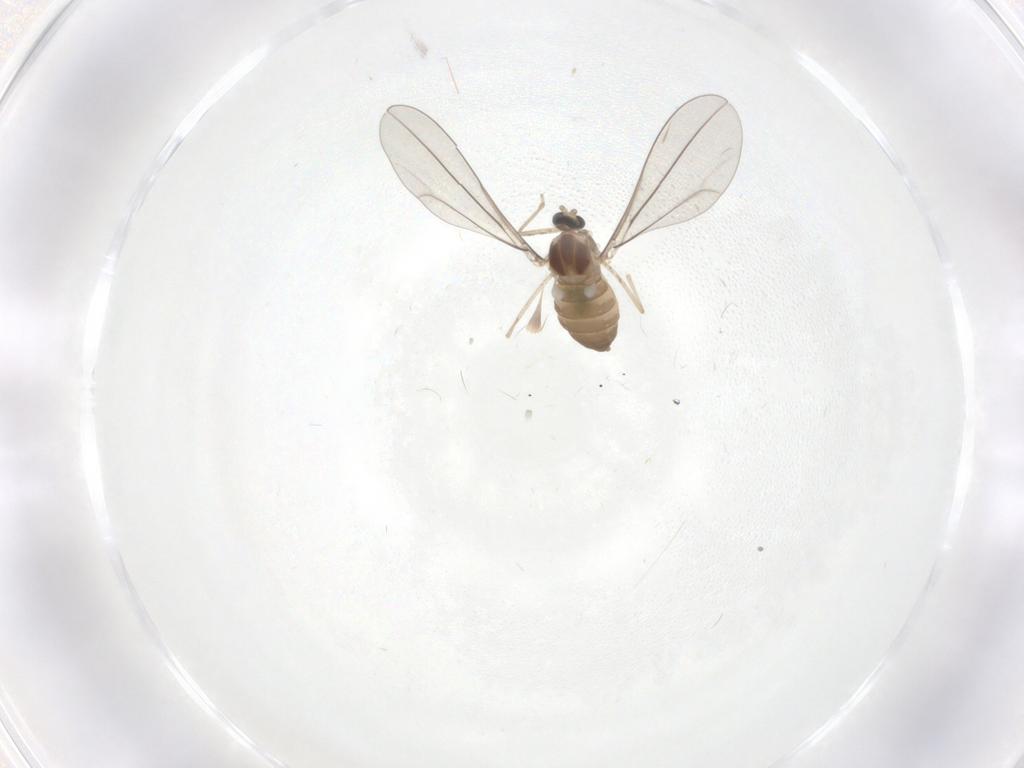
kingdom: Animalia
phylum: Arthropoda
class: Insecta
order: Diptera
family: Cecidomyiidae
